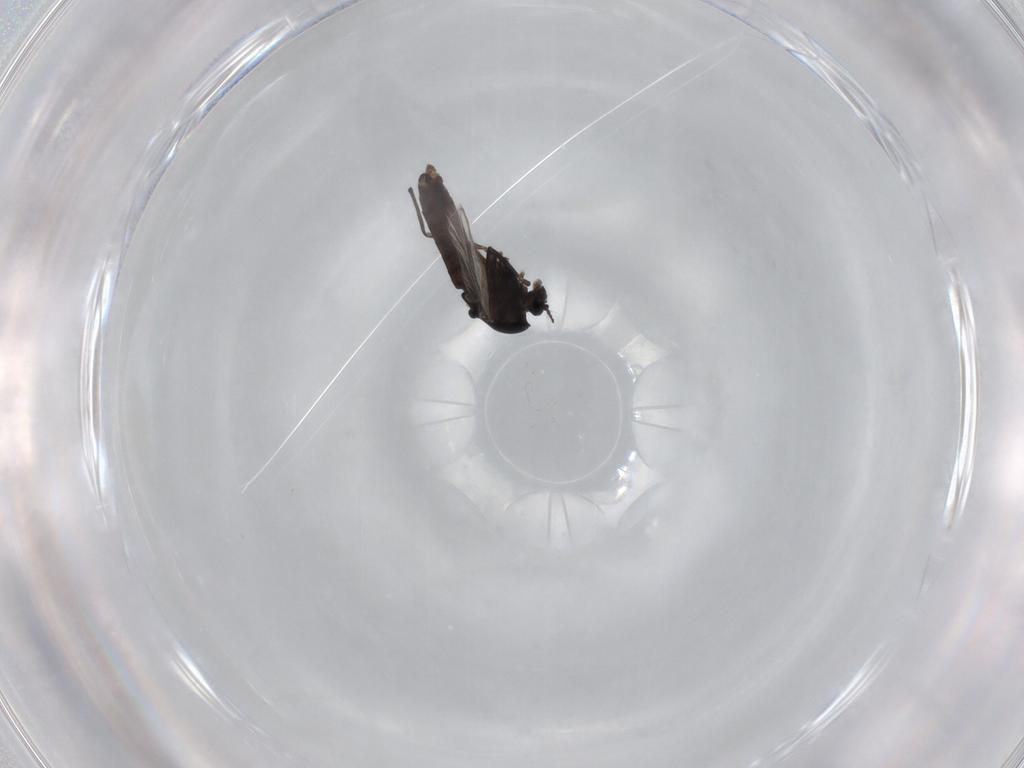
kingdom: Animalia
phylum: Arthropoda
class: Insecta
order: Diptera
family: Chironomidae
